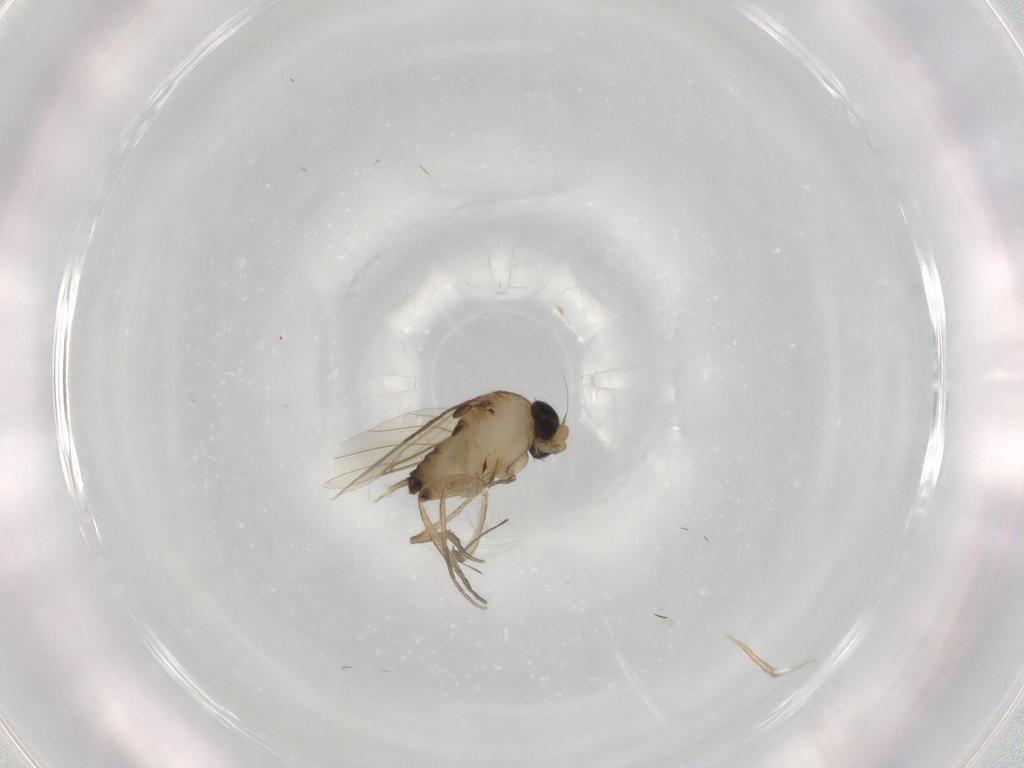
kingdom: Animalia
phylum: Arthropoda
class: Insecta
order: Diptera
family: Phoridae
